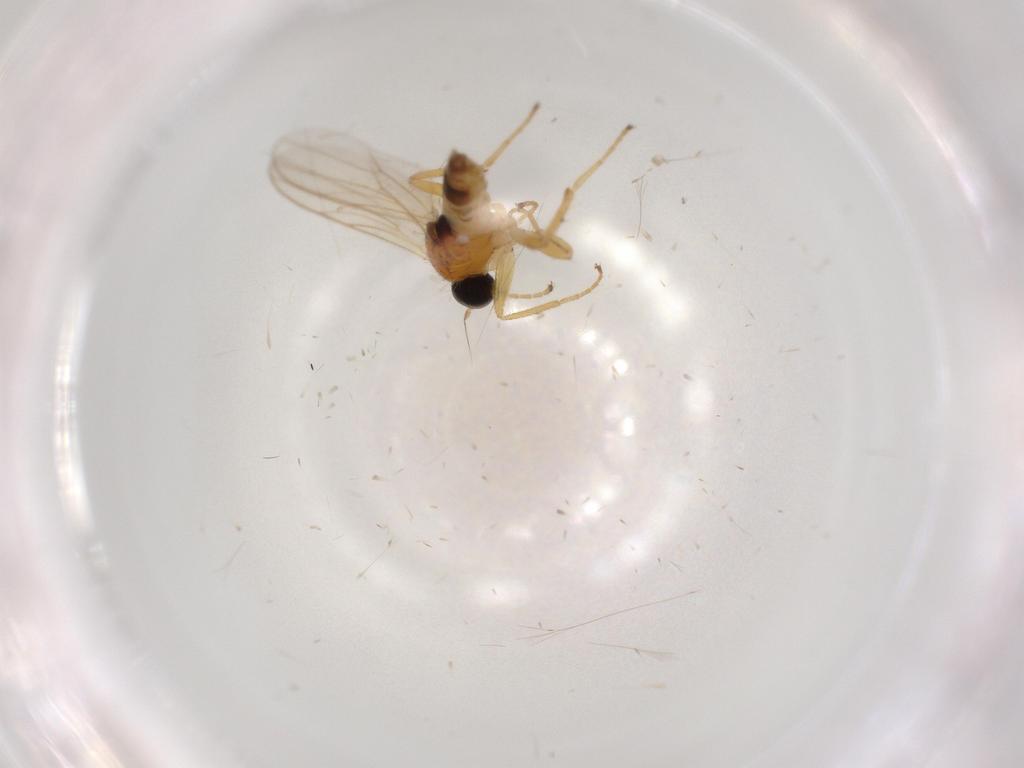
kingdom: Animalia
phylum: Arthropoda
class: Insecta
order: Diptera
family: Hybotidae
